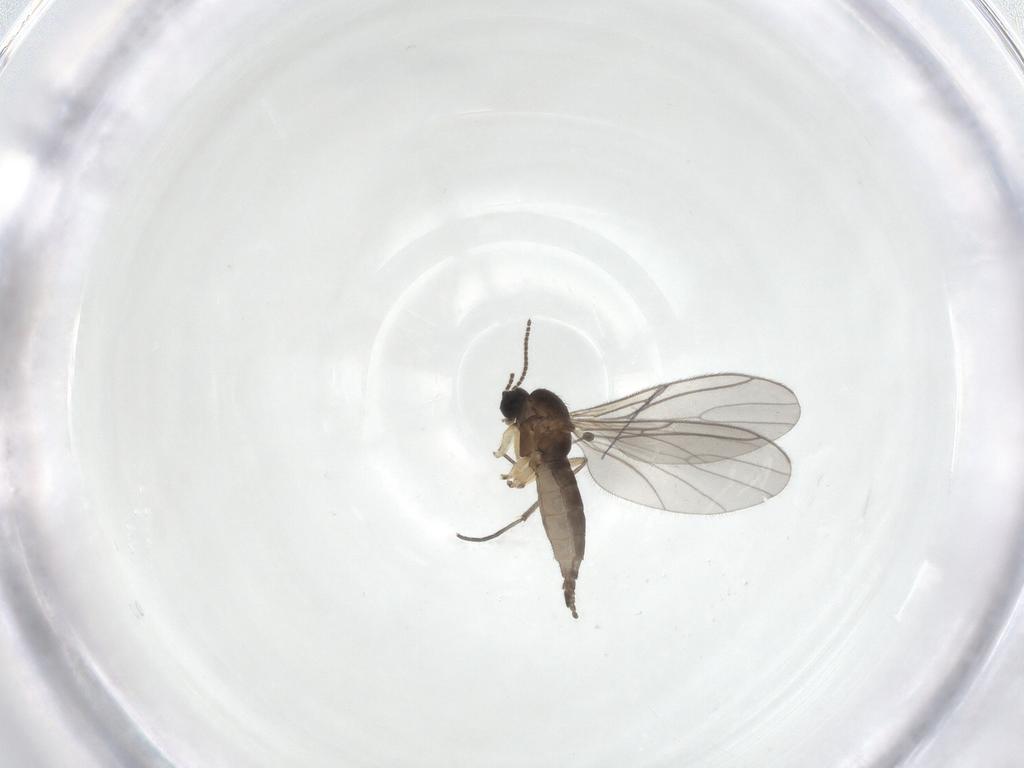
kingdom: Animalia
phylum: Arthropoda
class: Insecta
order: Diptera
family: Sciaridae
